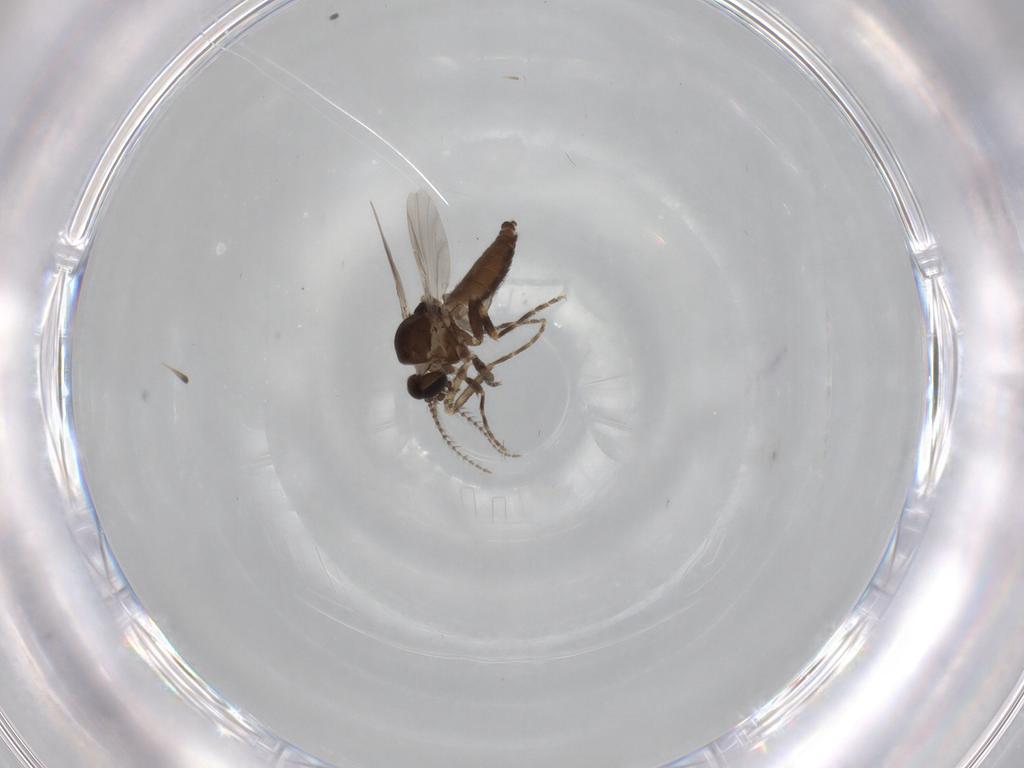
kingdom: Animalia
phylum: Arthropoda
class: Insecta
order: Diptera
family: Ceratopogonidae
